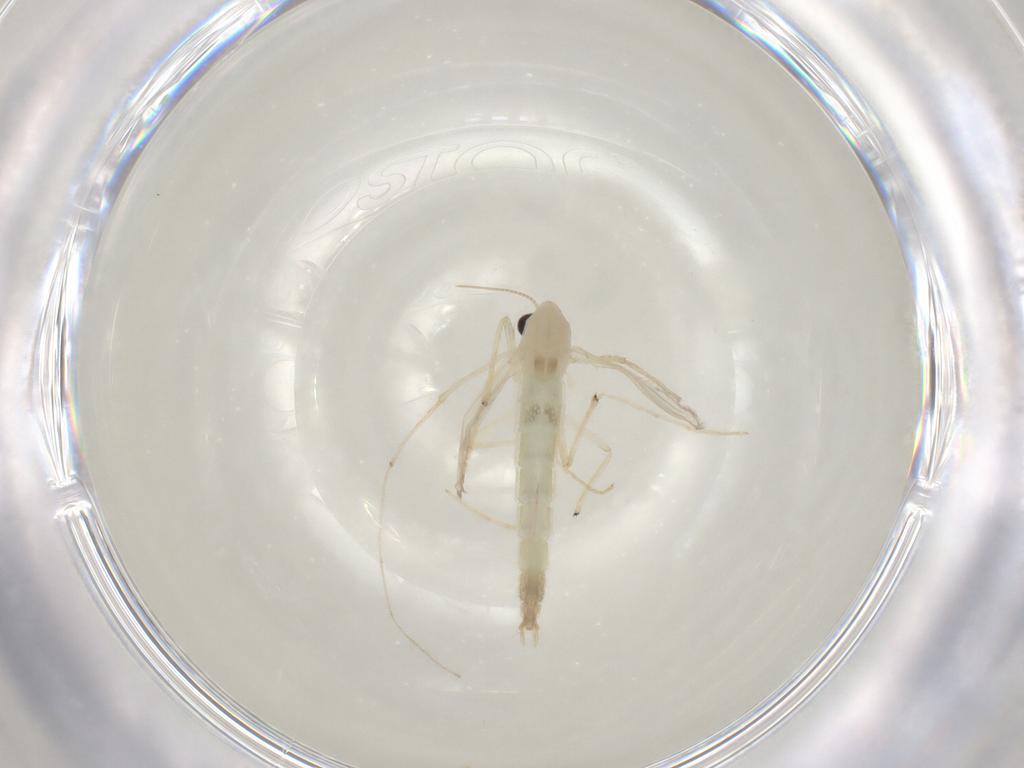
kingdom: Animalia
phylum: Arthropoda
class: Insecta
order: Diptera
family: Chironomidae
